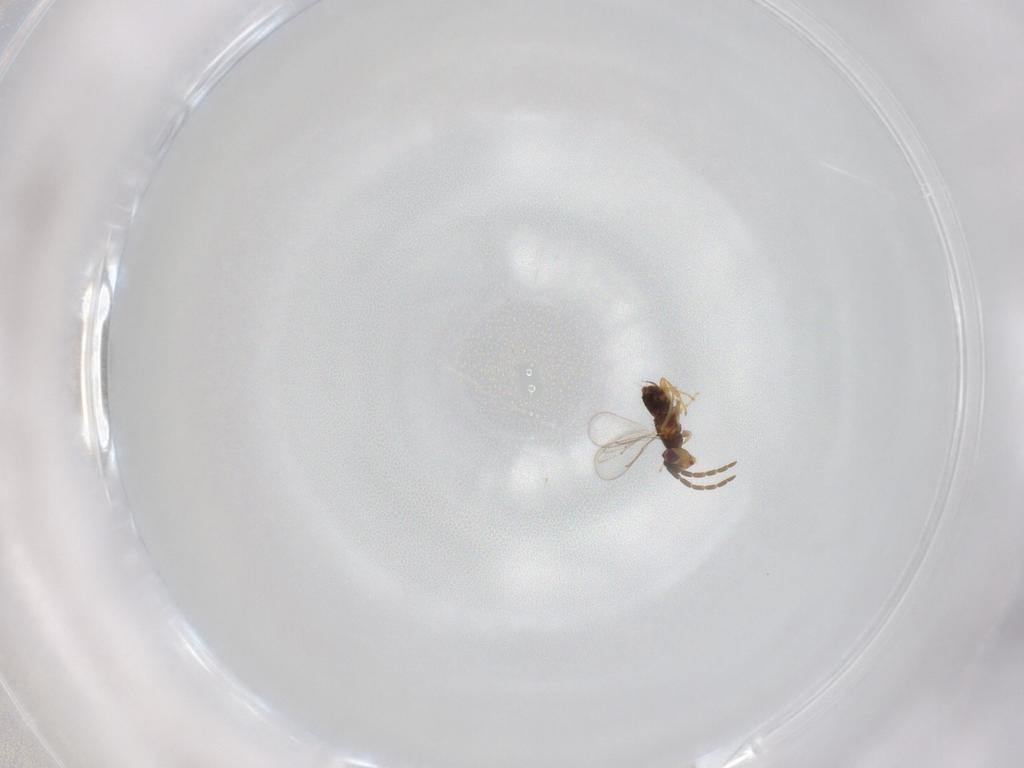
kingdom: Animalia
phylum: Arthropoda
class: Insecta
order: Hymenoptera
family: Aphelinidae
